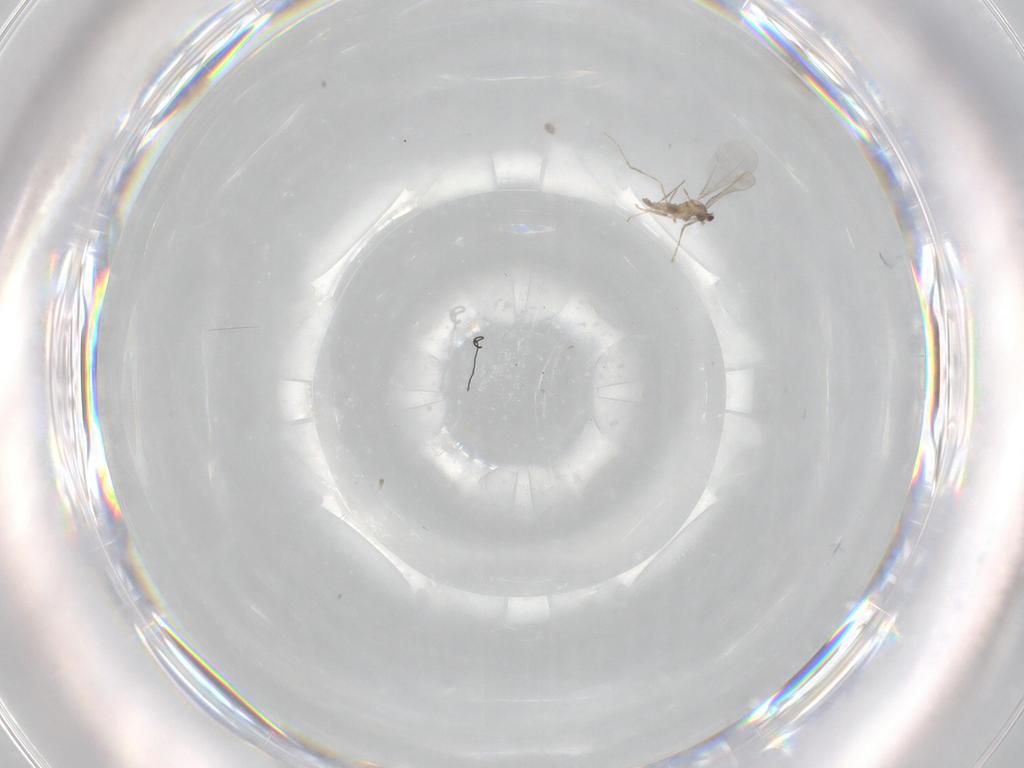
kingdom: Animalia
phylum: Arthropoda
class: Insecta
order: Diptera
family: Cecidomyiidae
